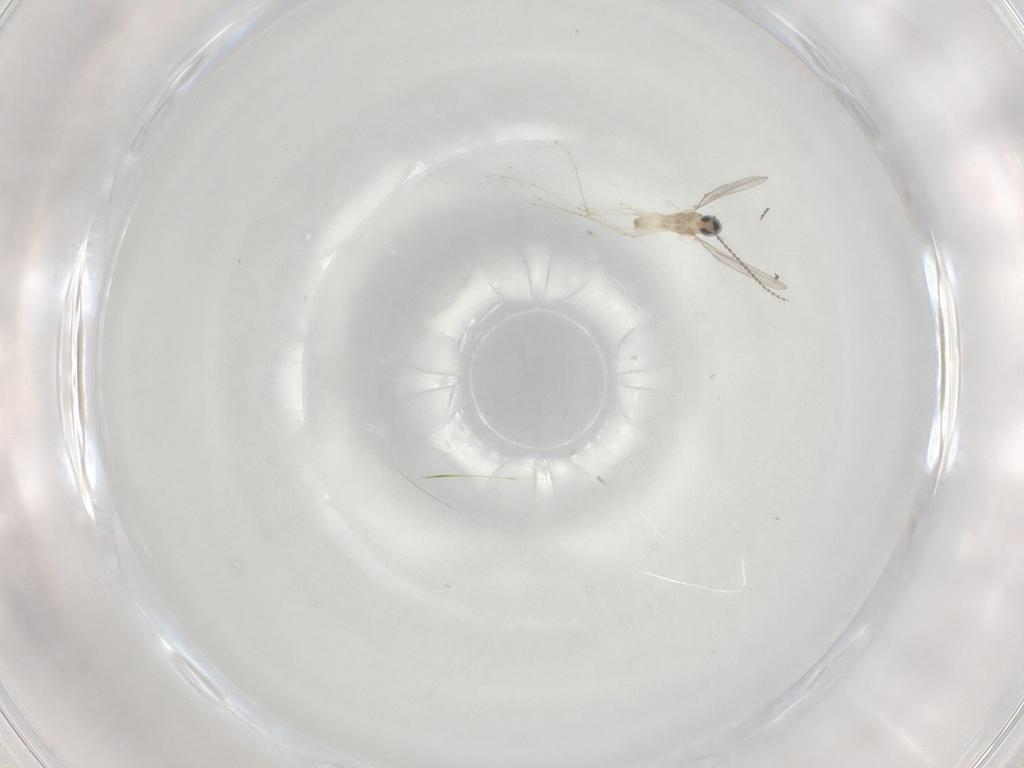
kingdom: Animalia
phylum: Arthropoda
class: Insecta
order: Diptera
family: Cecidomyiidae
